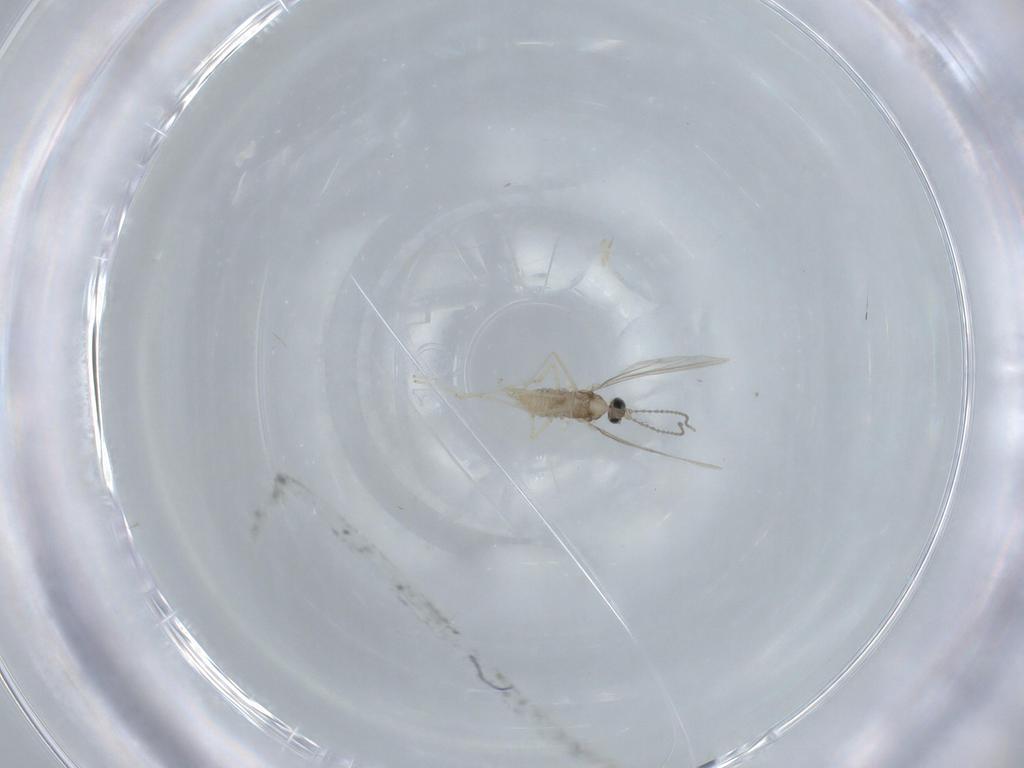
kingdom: Animalia
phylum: Arthropoda
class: Insecta
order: Diptera
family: Sciaridae
